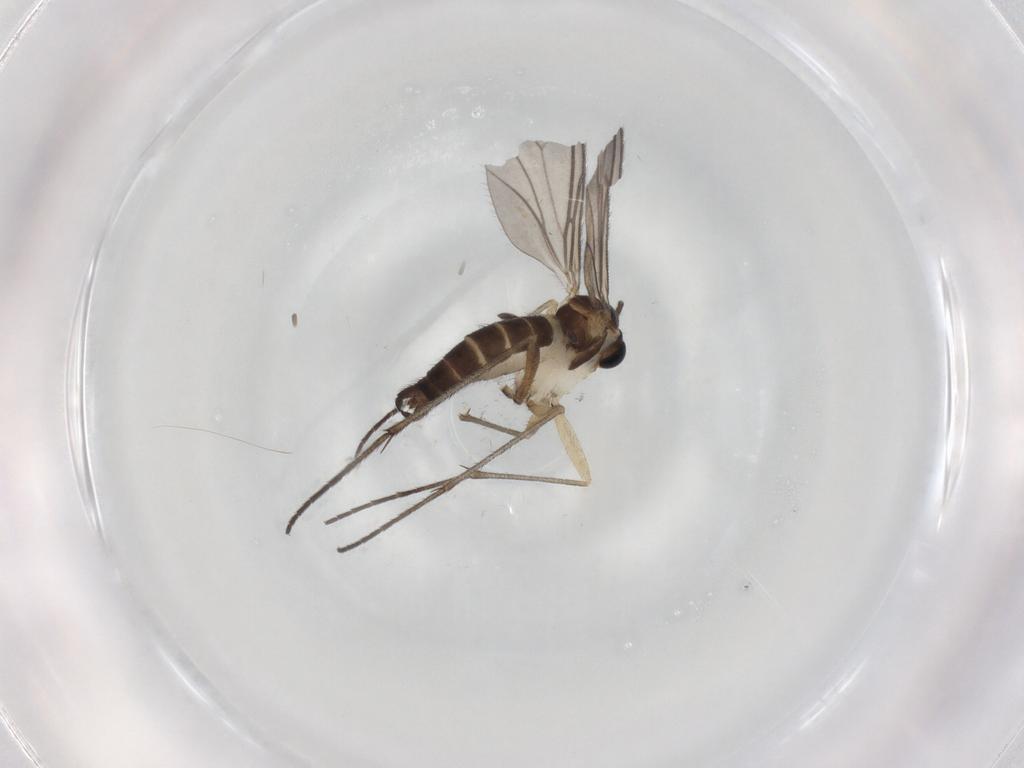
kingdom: Animalia
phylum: Arthropoda
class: Insecta
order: Diptera
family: Sciaridae
